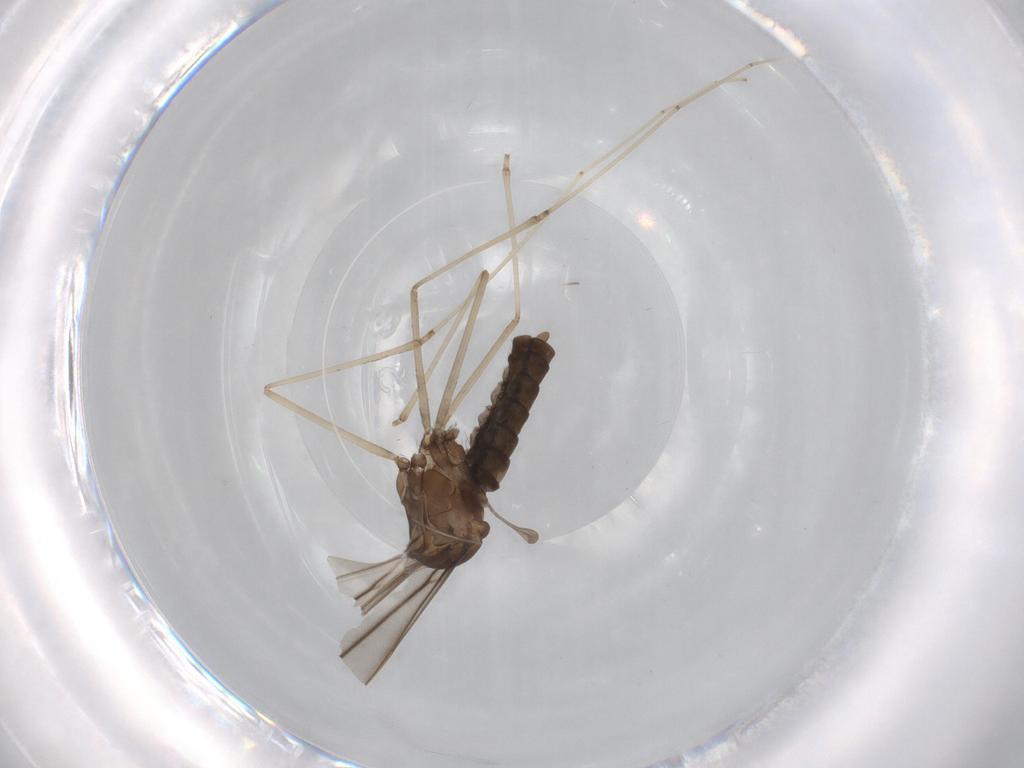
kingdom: Animalia
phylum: Arthropoda
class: Insecta
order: Diptera
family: Cecidomyiidae
